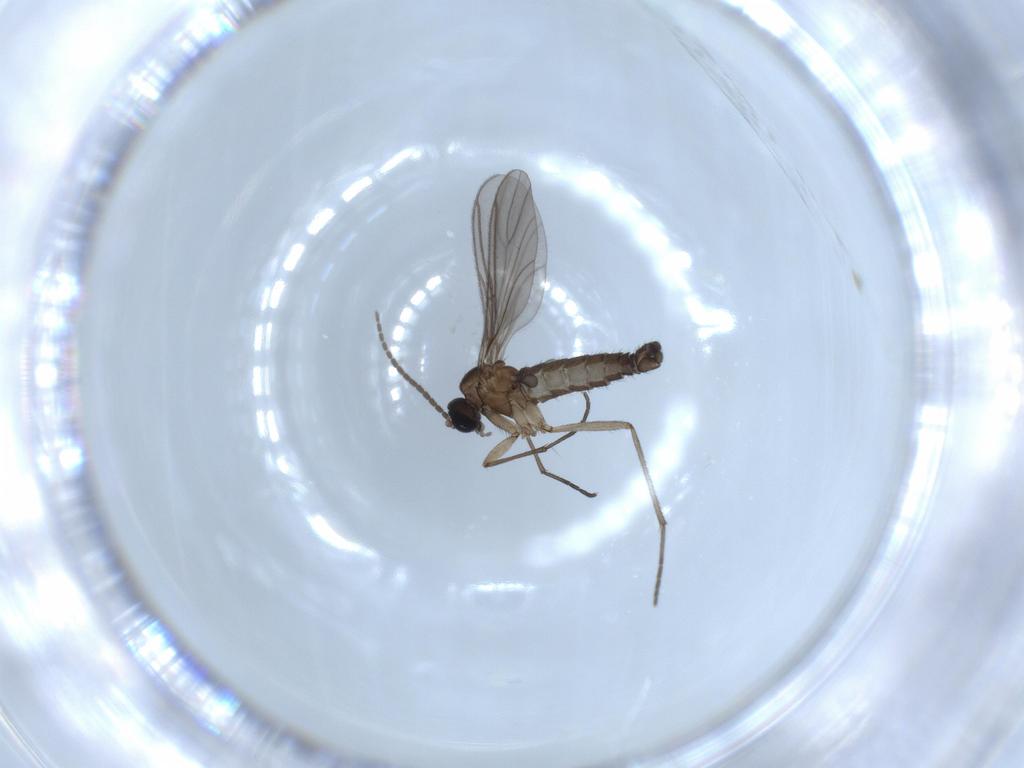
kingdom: Animalia
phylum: Arthropoda
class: Insecta
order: Diptera
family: Sciaridae
